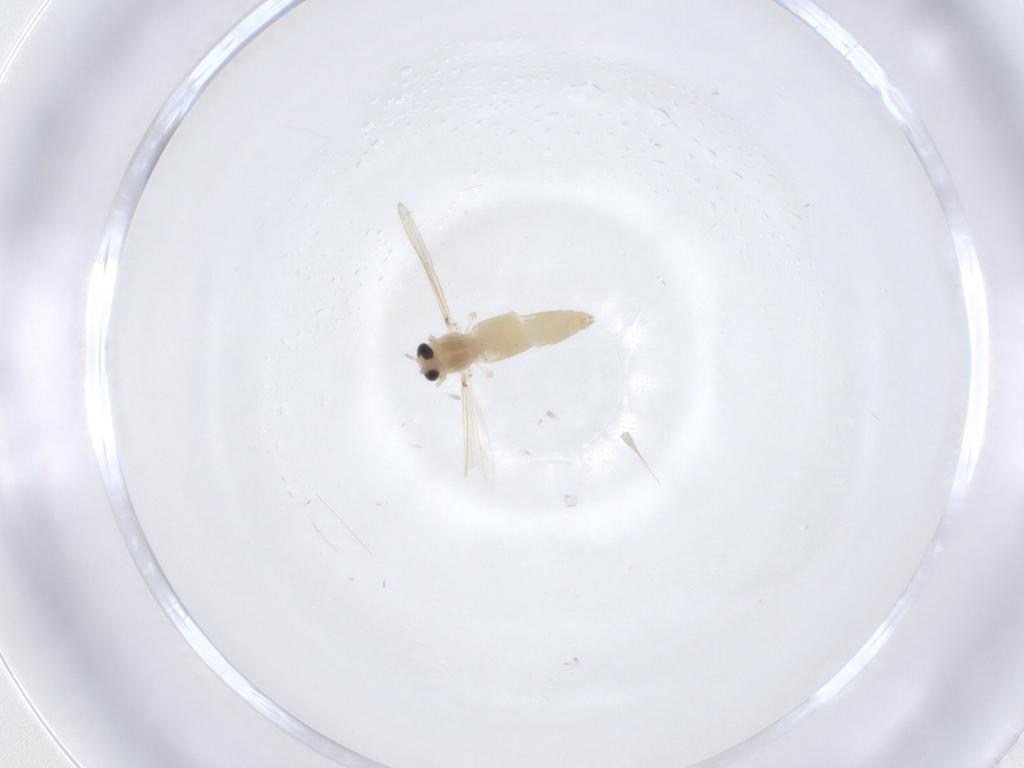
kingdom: Animalia
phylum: Arthropoda
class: Insecta
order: Diptera
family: Chironomidae
